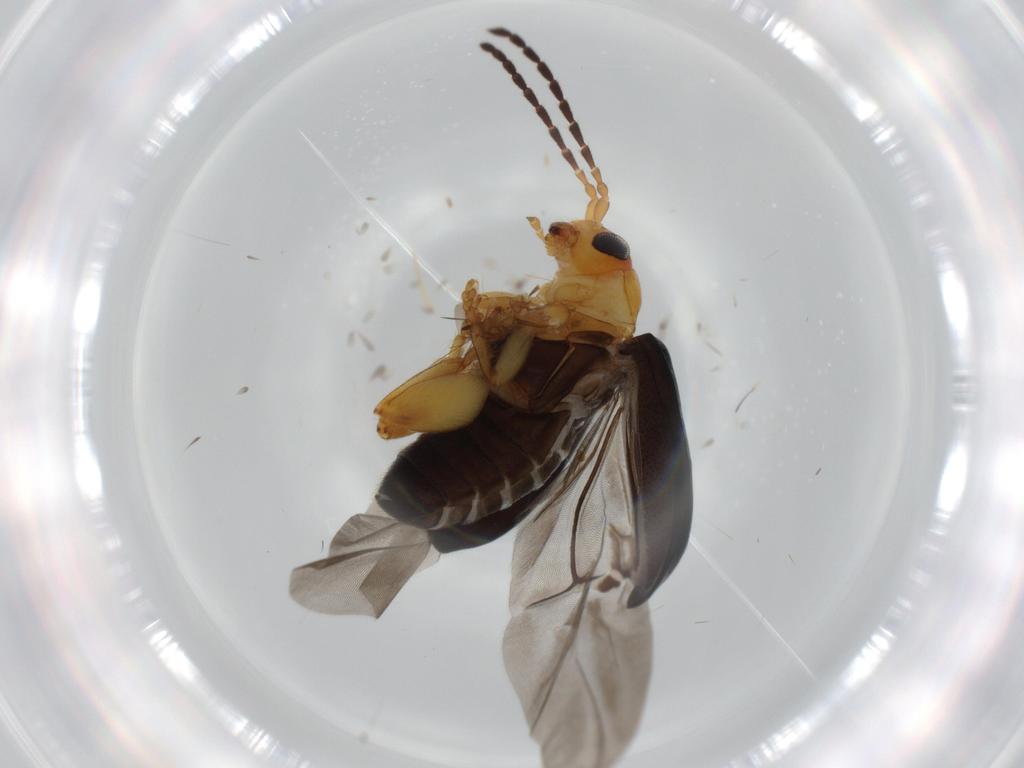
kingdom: Animalia
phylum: Arthropoda
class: Insecta
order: Coleoptera
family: Chrysomelidae
